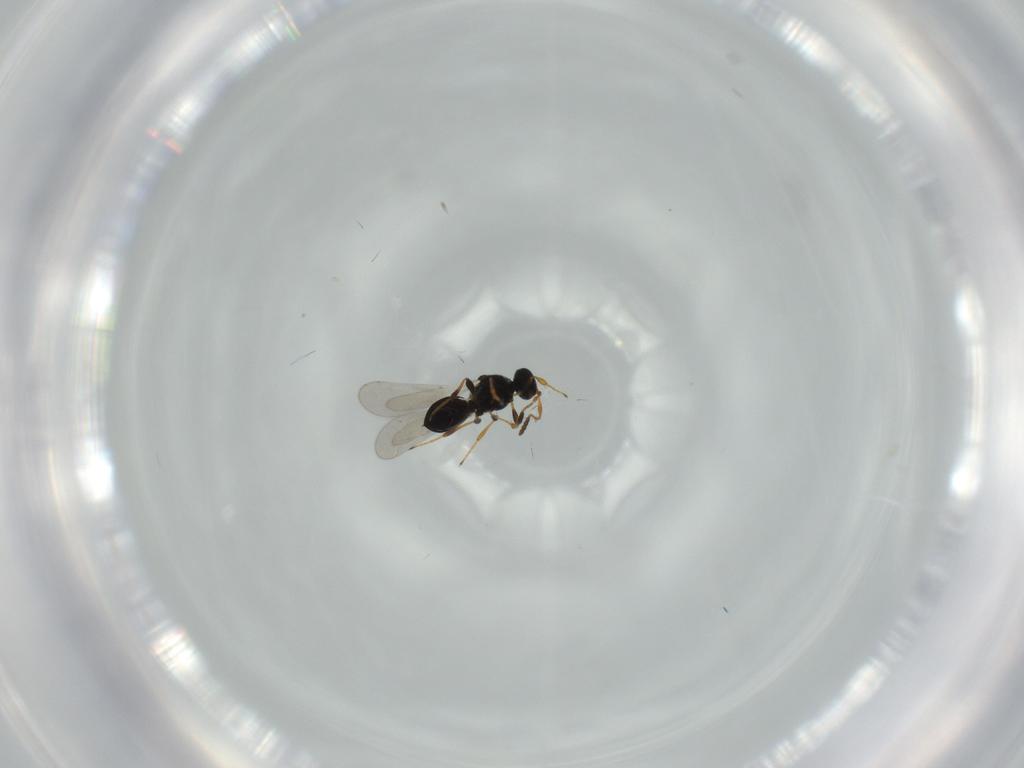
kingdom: Animalia
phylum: Arthropoda
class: Insecta
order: Hymenoptera
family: Platygastridae
